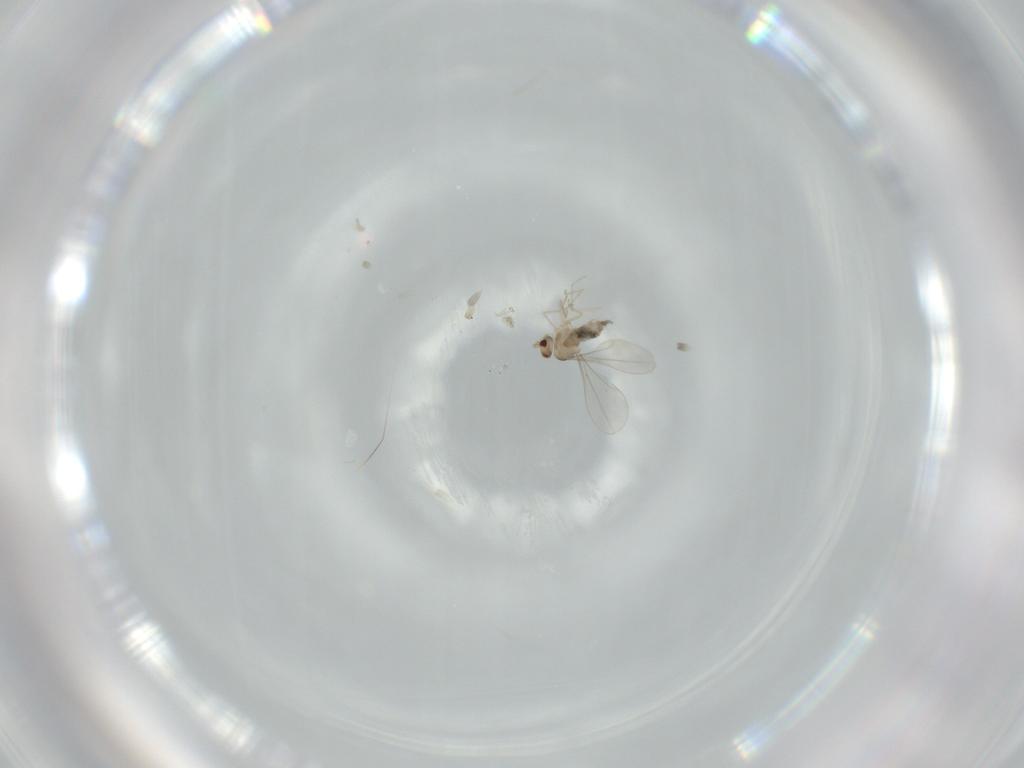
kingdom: Animalia
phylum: Arthropoda
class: Insecta
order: Diptera
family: Cecidomyiidae
